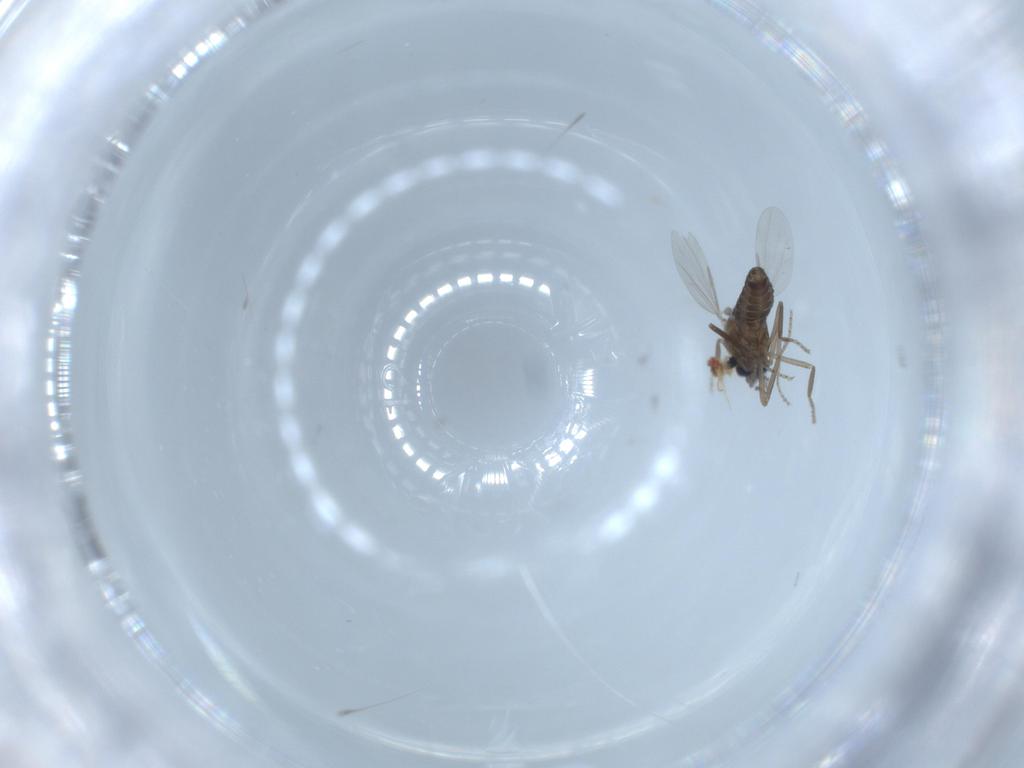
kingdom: Animalia
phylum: Arthropoda
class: Insecta
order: Diptera
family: Ceratopogonidae
